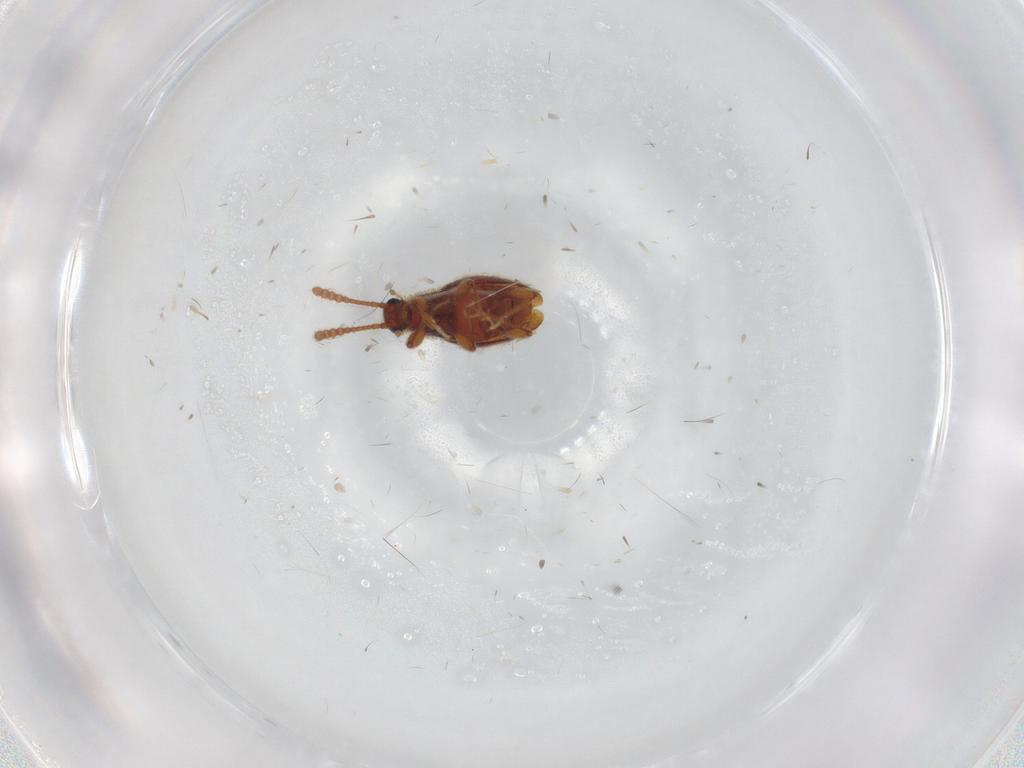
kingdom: Animalia
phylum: Arthropoda
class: Insecta
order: Coleoptera
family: Staphylinidae
